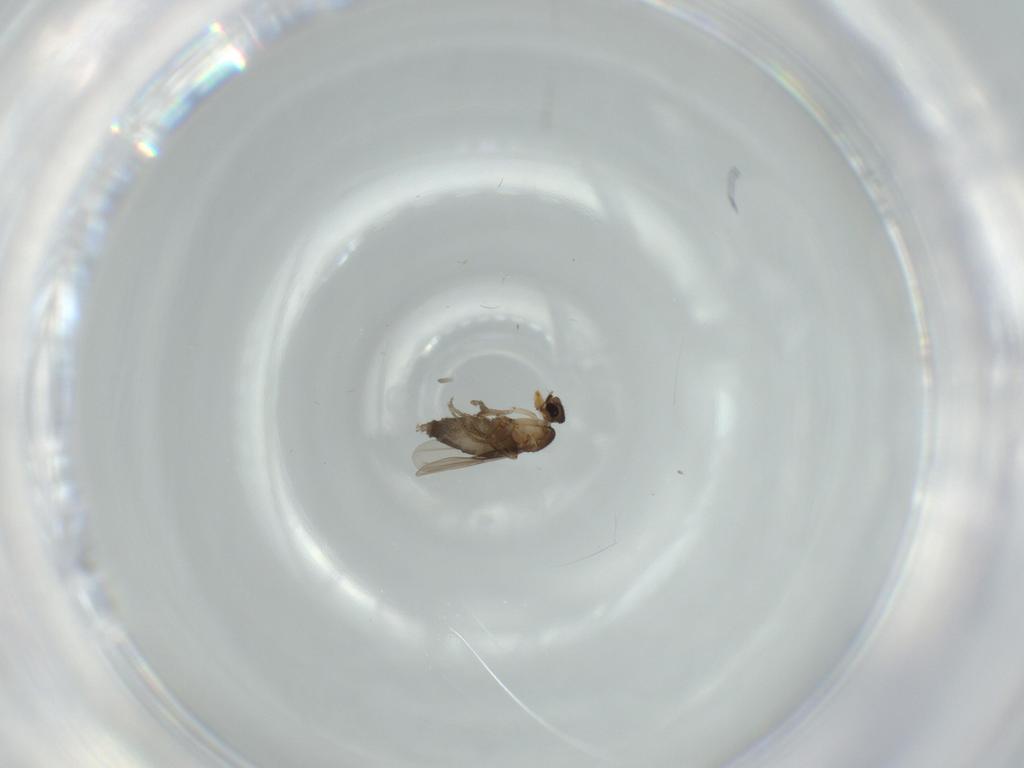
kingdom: Animalia
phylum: Arthropoda
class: Insecta
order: Diptera
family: Phoridae
